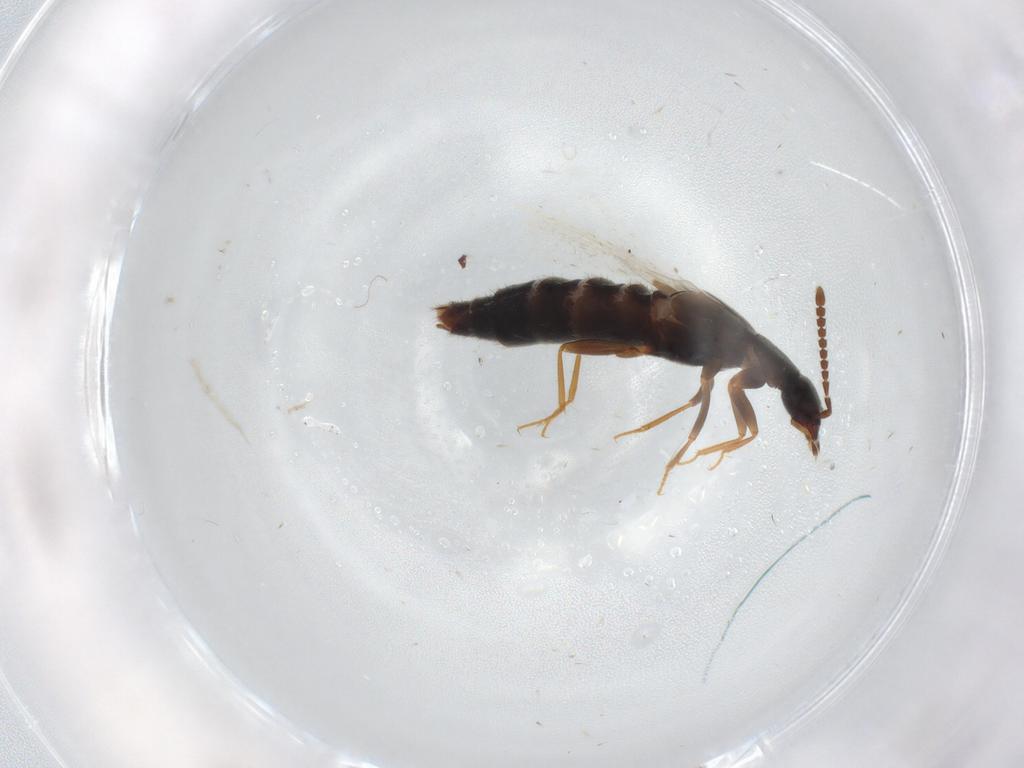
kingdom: Animalia
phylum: Arthropoda
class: Insecta
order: Coleoptera
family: Staphylinidae
